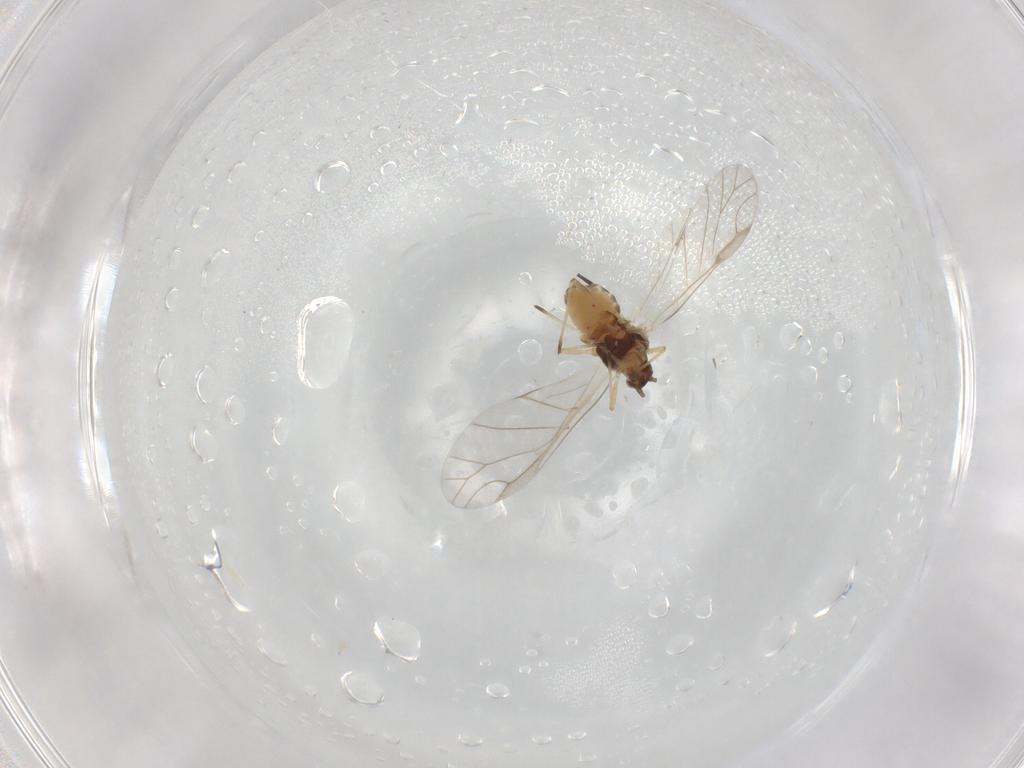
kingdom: Animalia
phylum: Arthropoda
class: Insecta
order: Hemiptera
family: Aphididae
